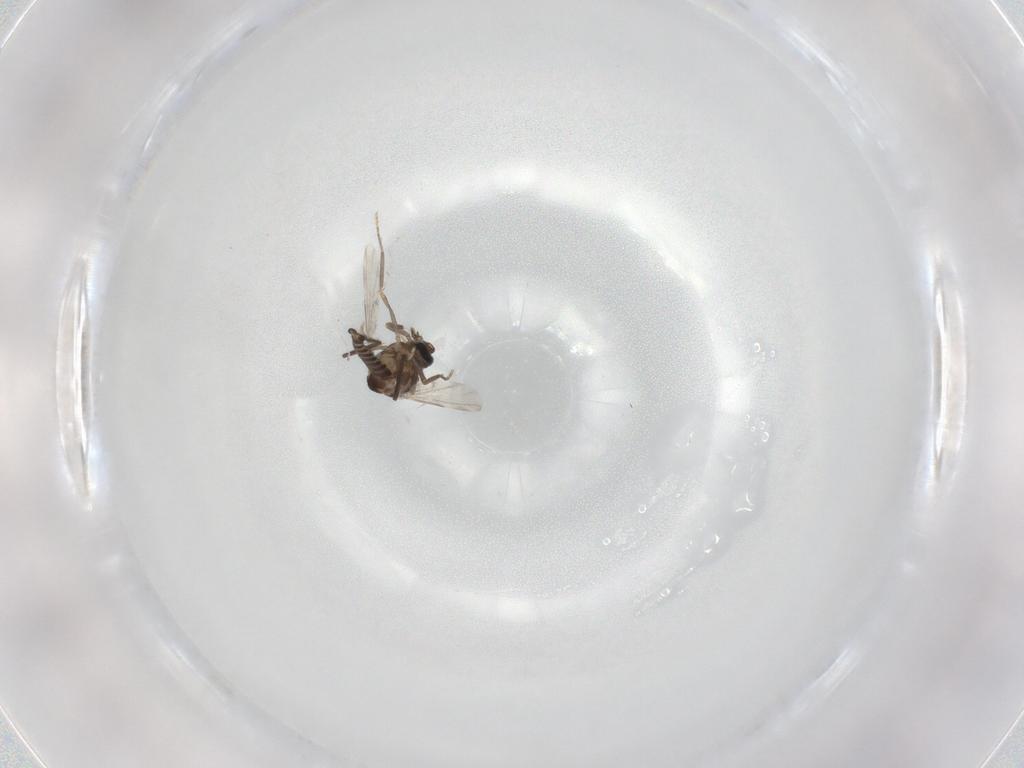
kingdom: Animalia
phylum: Arthropoda
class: Insecta
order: Diptera
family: Ceratopogonidae
